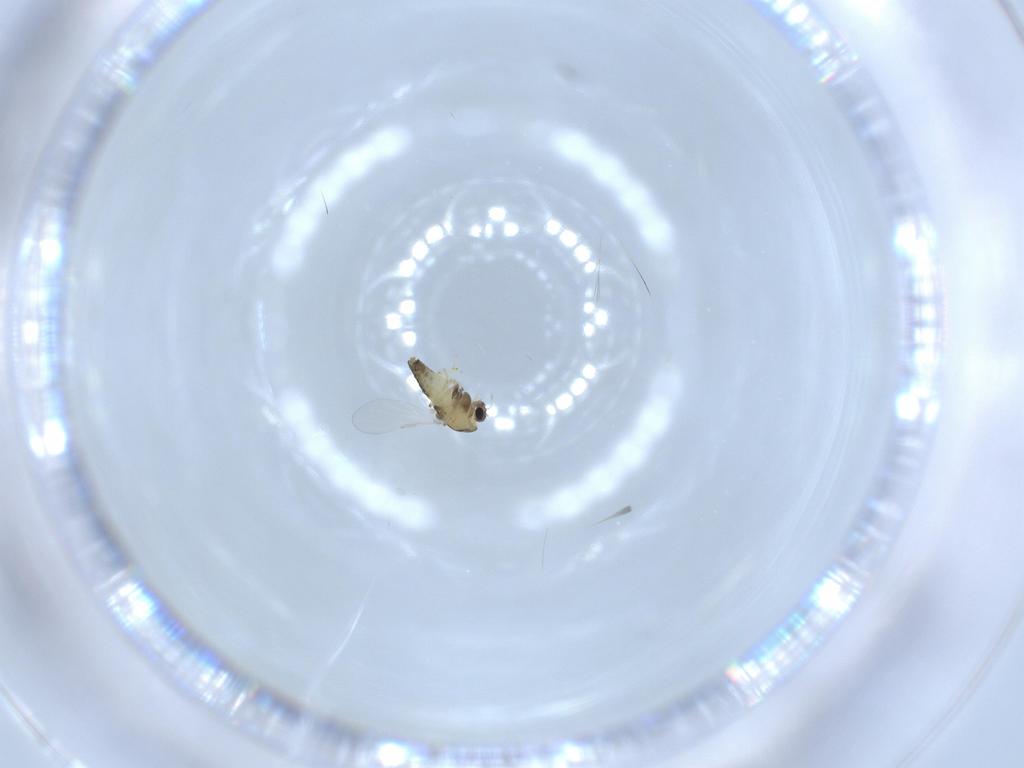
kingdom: Animalia
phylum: Arthropoda
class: Insecta
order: Diptera
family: Chironomidae
